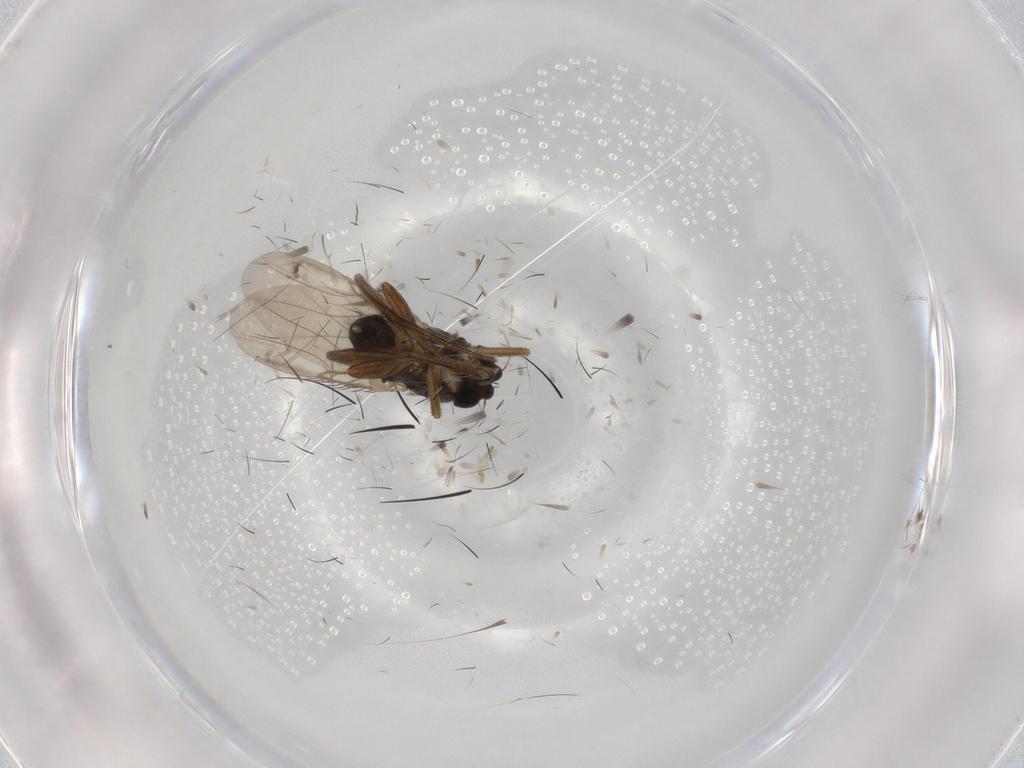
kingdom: Animalia
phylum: Arthropoda
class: Insecta
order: Diptera
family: Phoridae
